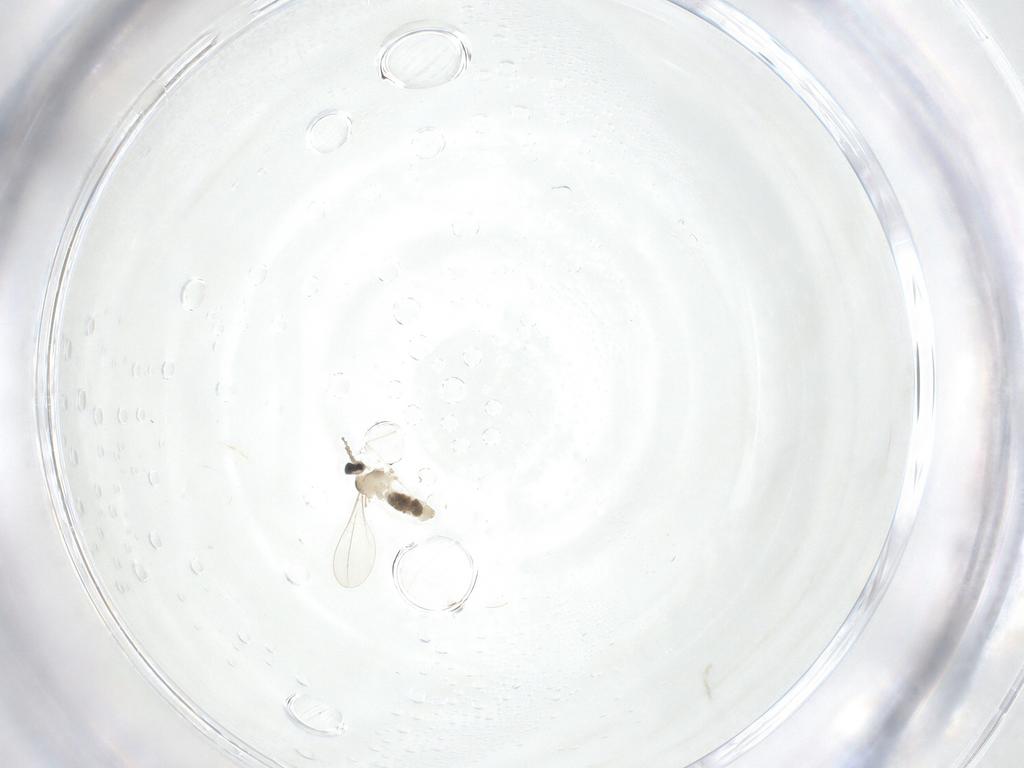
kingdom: Animalia
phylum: Arthropoda
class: Insecta
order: Diptera
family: Cecidomyiidae
